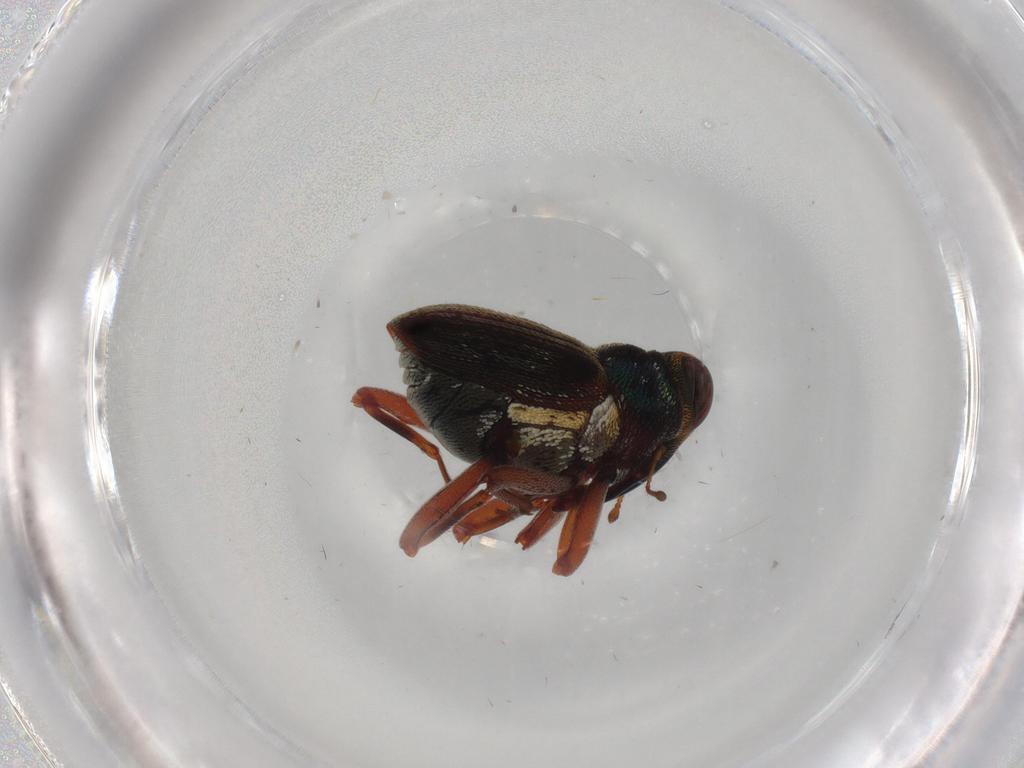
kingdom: Animalia
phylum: Arthropoda
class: Insecta
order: Coleoptera
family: Curculionidae
